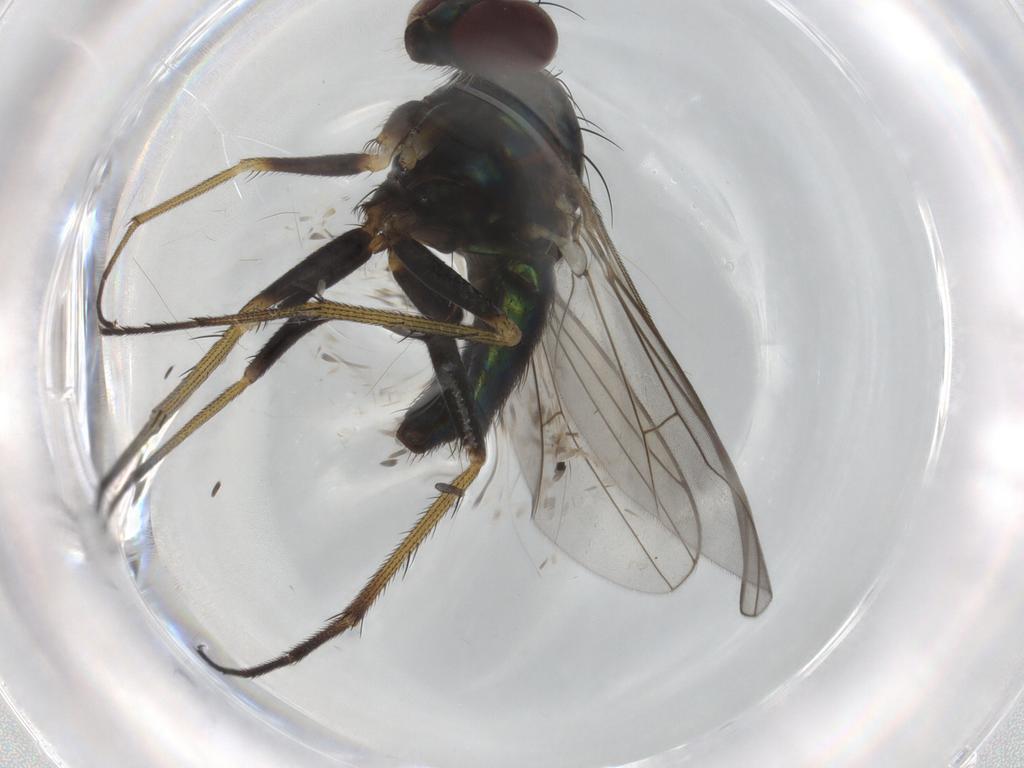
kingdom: Animalia
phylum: Arthropoda
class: Insecta
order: Diptera
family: Dolichopodidae
